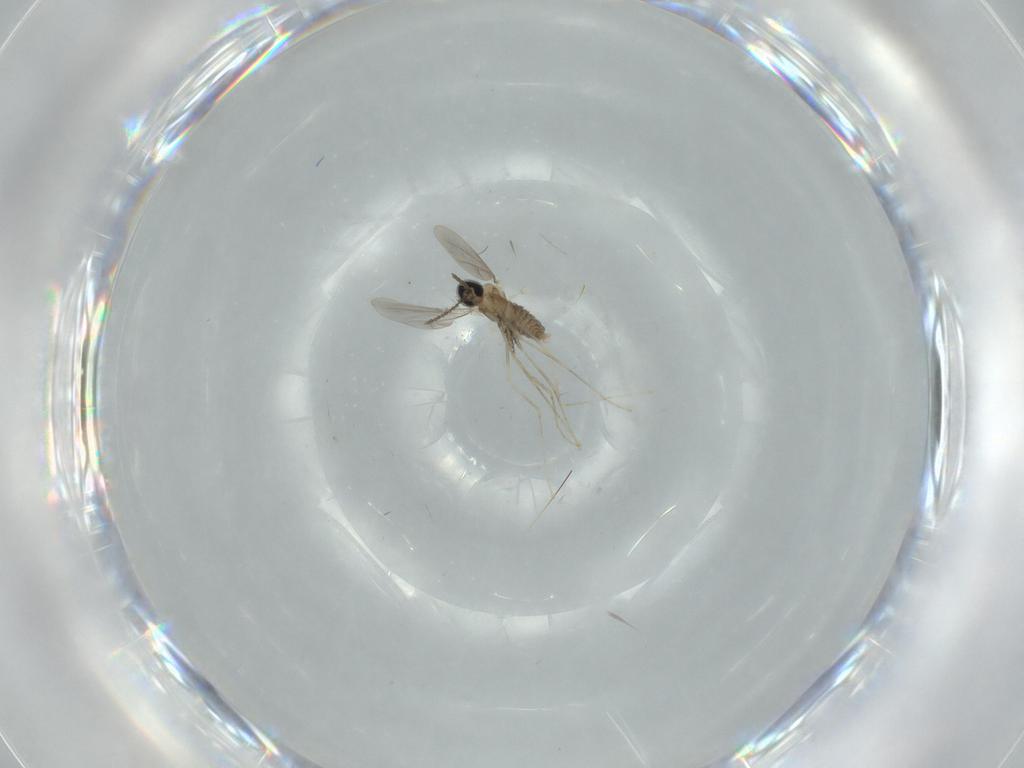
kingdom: Animalia
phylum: Arthropoda
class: Insecta
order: Diptera
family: Cecidomyiidae
